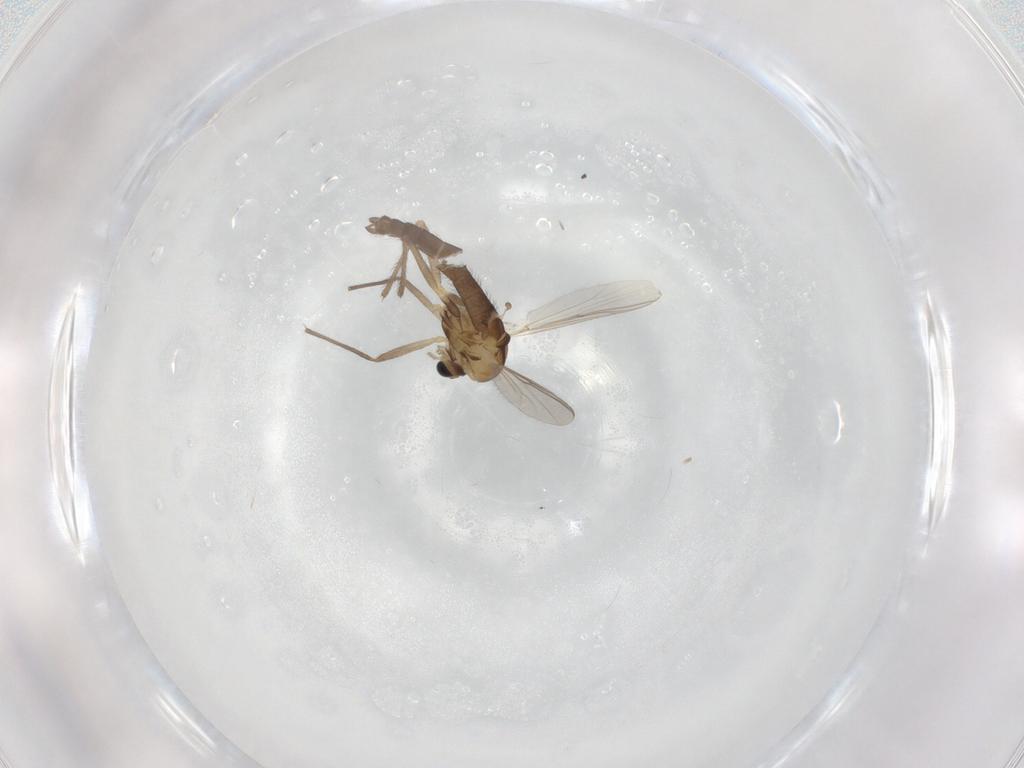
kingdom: Animalia
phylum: Arthropoda
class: Insecta
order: Diptera
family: Chironomidae
